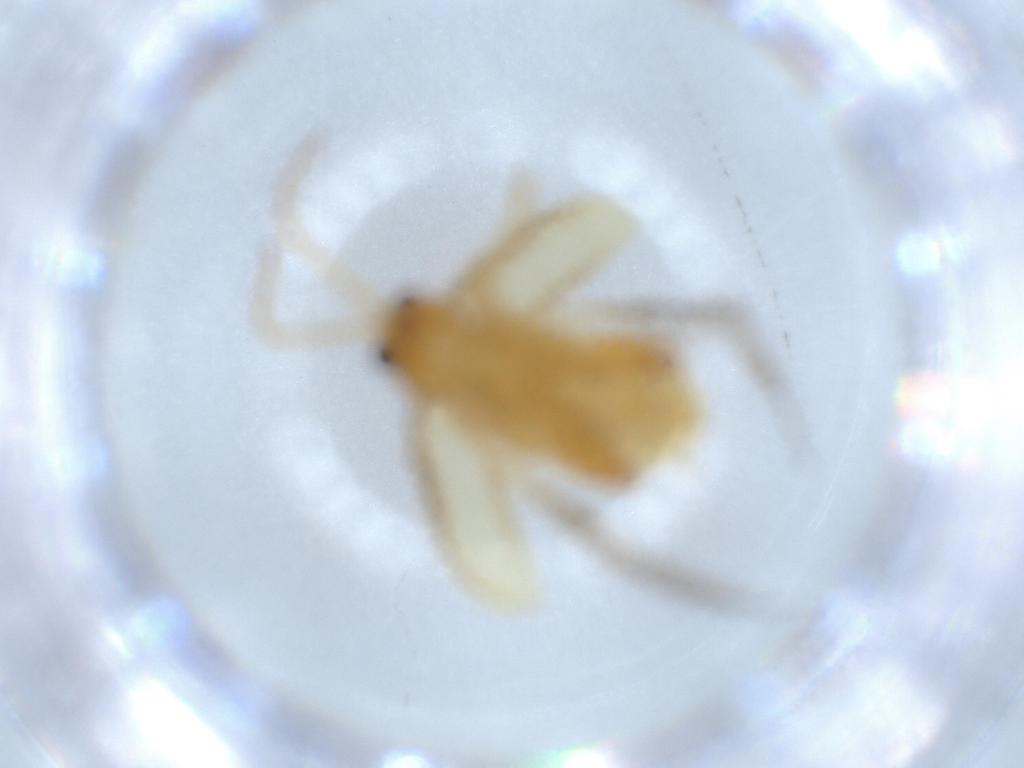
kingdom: Animalia
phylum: Arthropoda
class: Insecta
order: Coleoptera
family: Chrysomelidae
